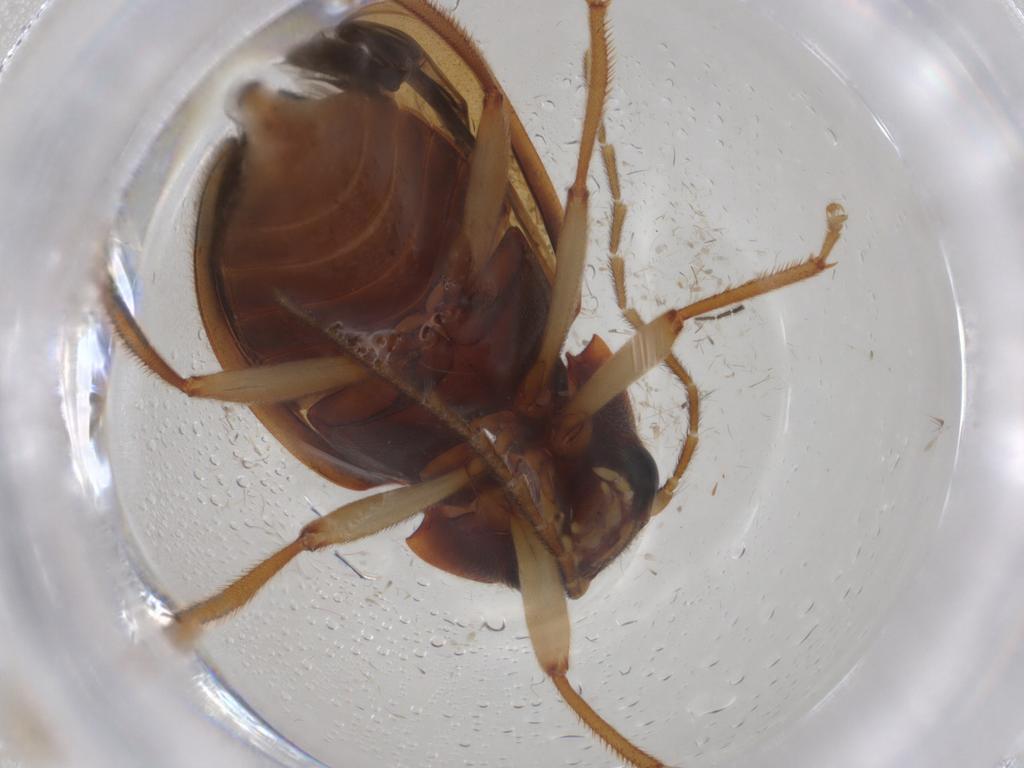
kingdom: Animalia
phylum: Arthropoda
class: Insecta
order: Coleoptera
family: Ptilodactylidae
